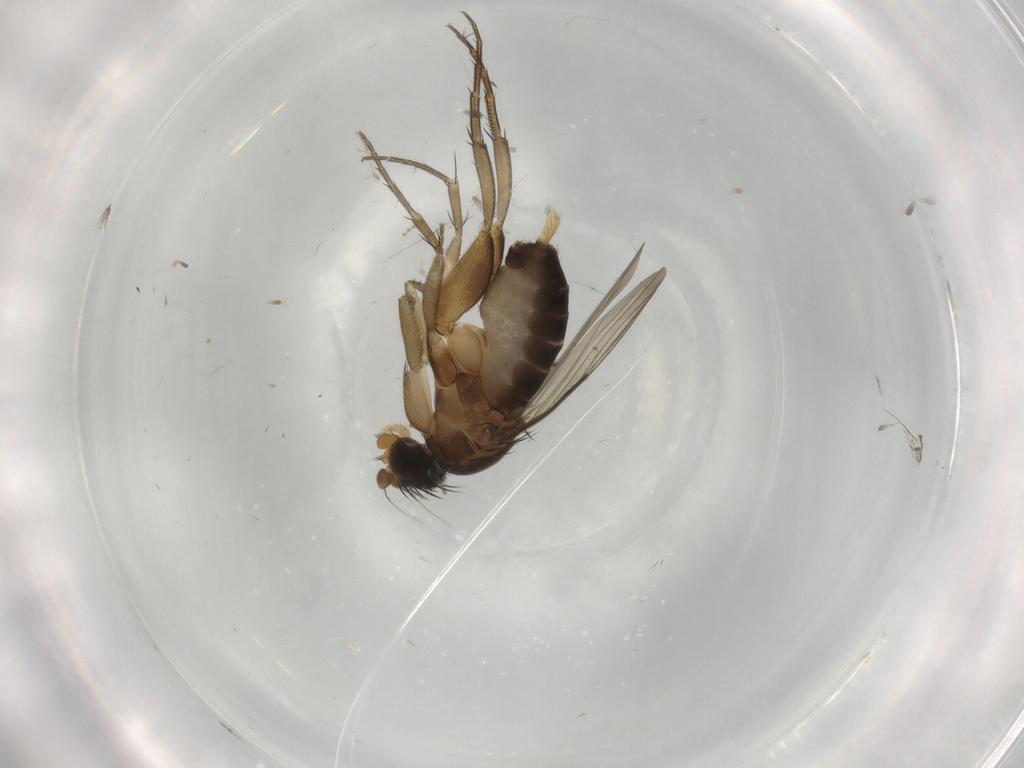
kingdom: Animalia
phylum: Arthropoda
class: Insecta
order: Diptera
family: Phoridae
